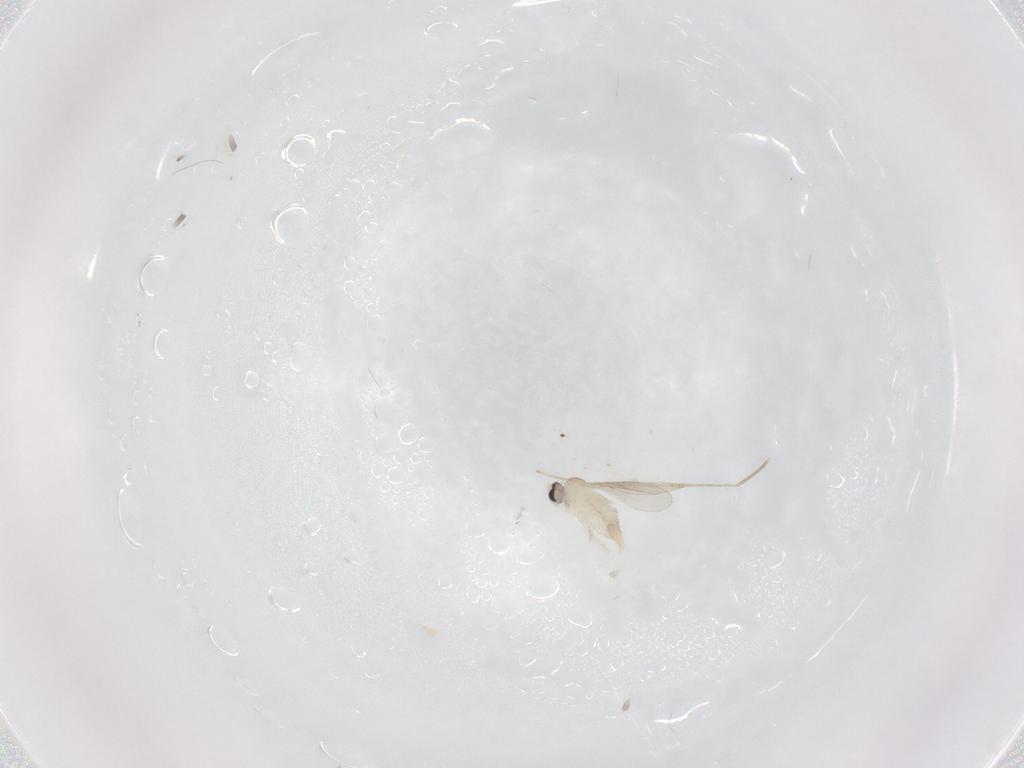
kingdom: Animalia
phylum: Arthropoda
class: Insecta
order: Diptera
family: Cecidomyiidae
